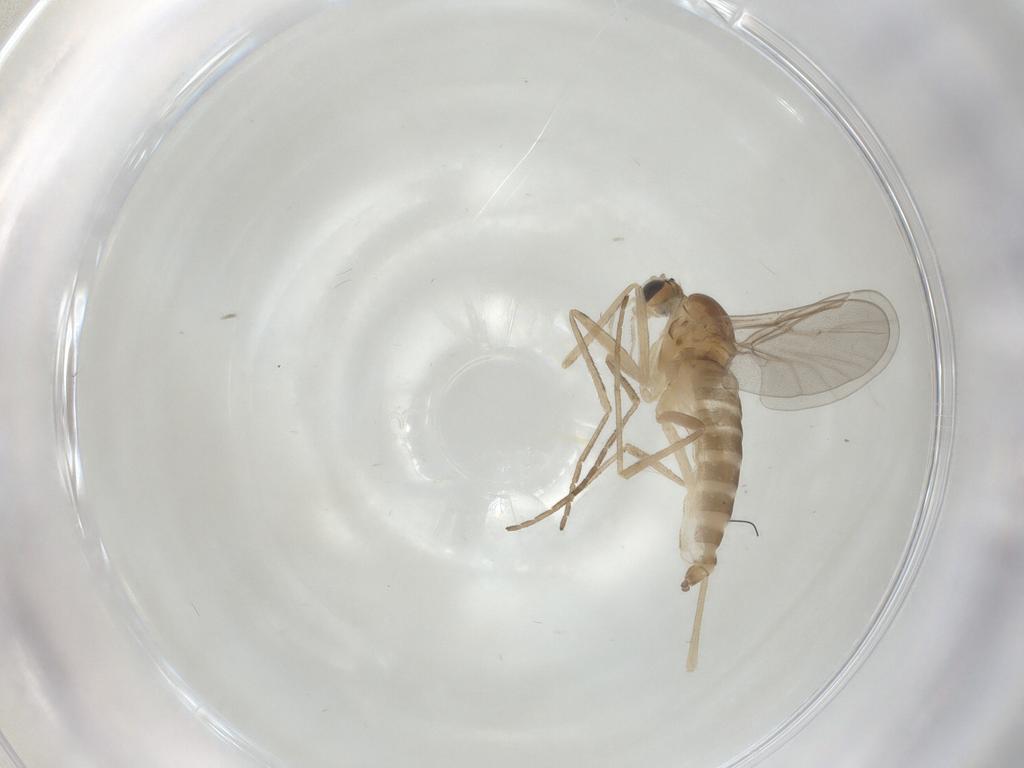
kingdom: Animalia
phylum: Arthropoda
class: Insecta
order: Diptera
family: Cecidomyiidae
